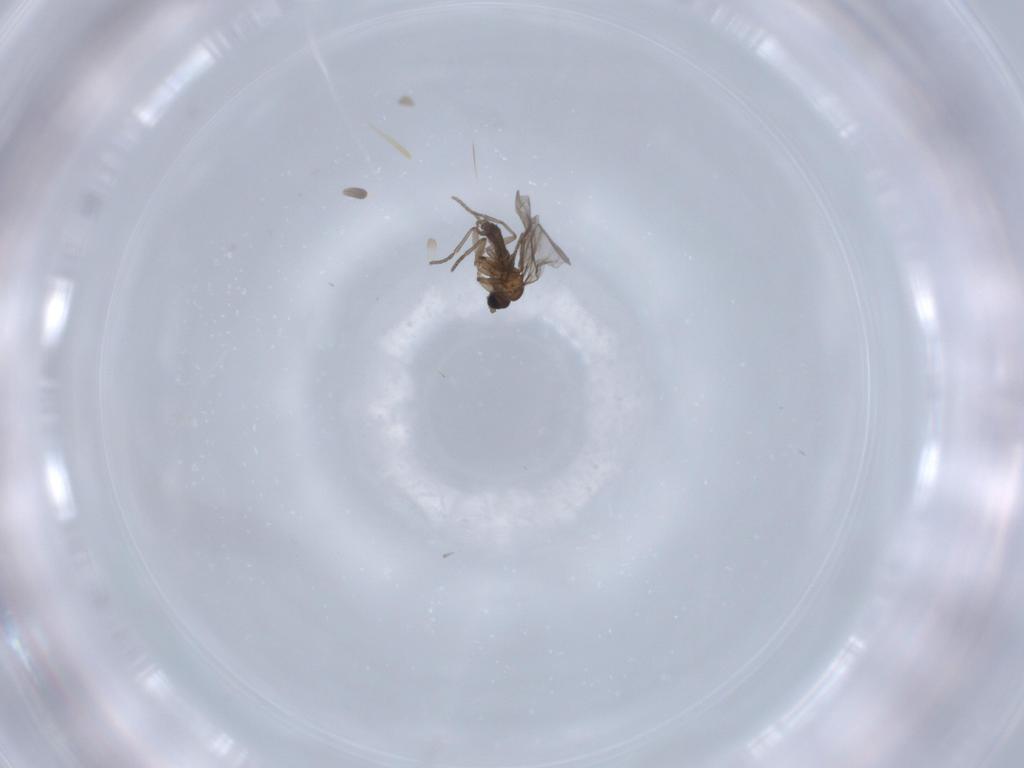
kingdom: Animalia
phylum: Arthropoda
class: Insecta
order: Diptera
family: Sciaridae
